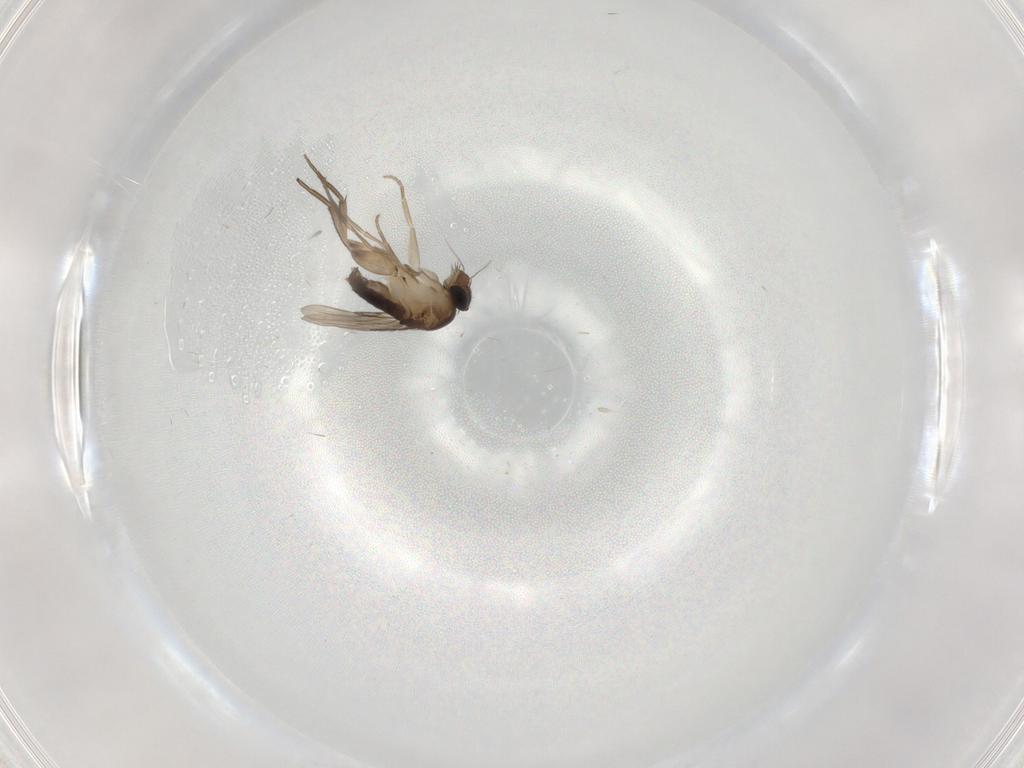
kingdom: Animalia
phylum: Arthropoda
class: Insecta
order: Diptera
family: Phoridae
